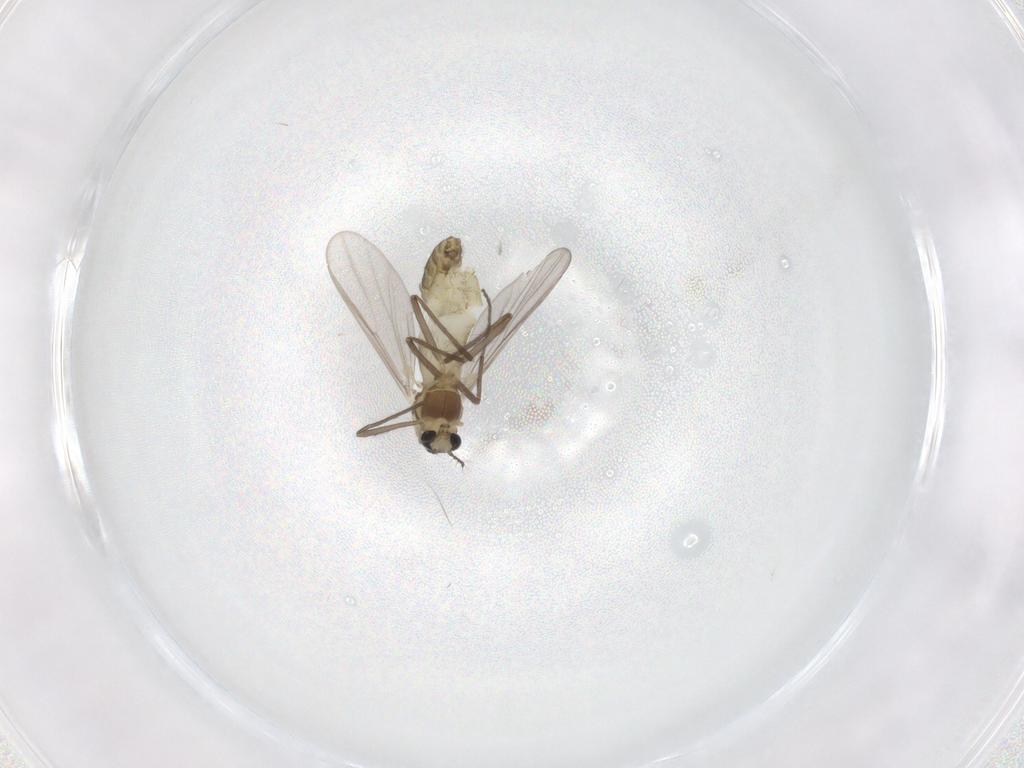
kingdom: Animalia
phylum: Arthropoda
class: Insecta
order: Diptera
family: Chironomidae
